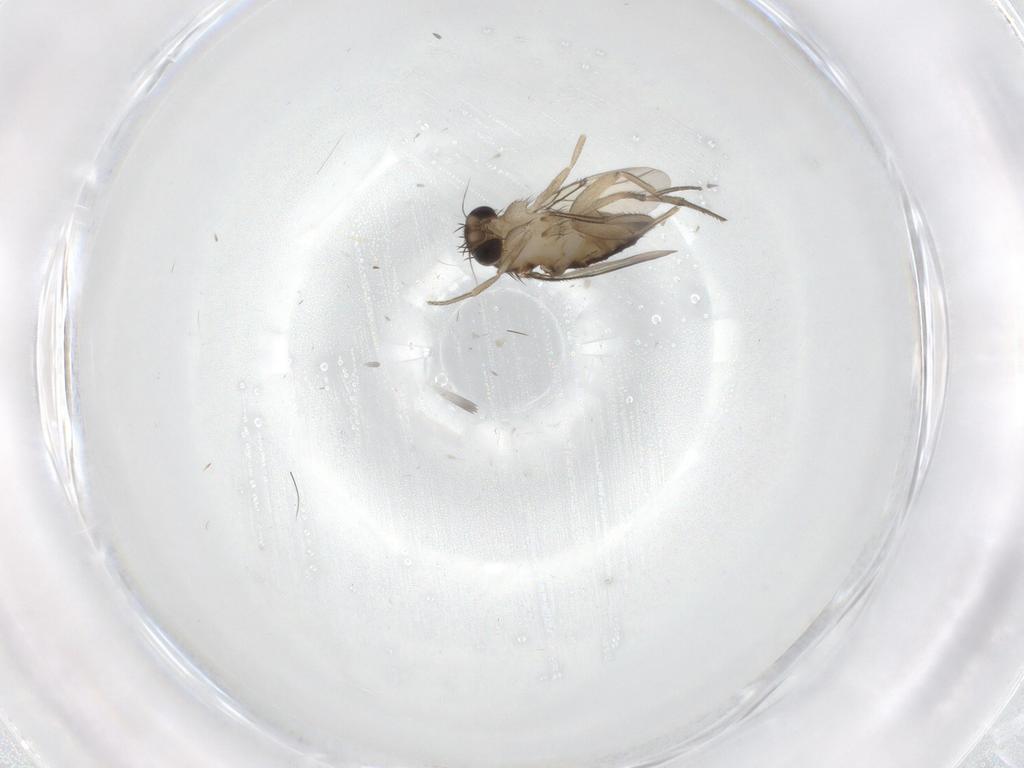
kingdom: Animalia
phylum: Arthropoda
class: Insecta
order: Diptera
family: Phoridae
